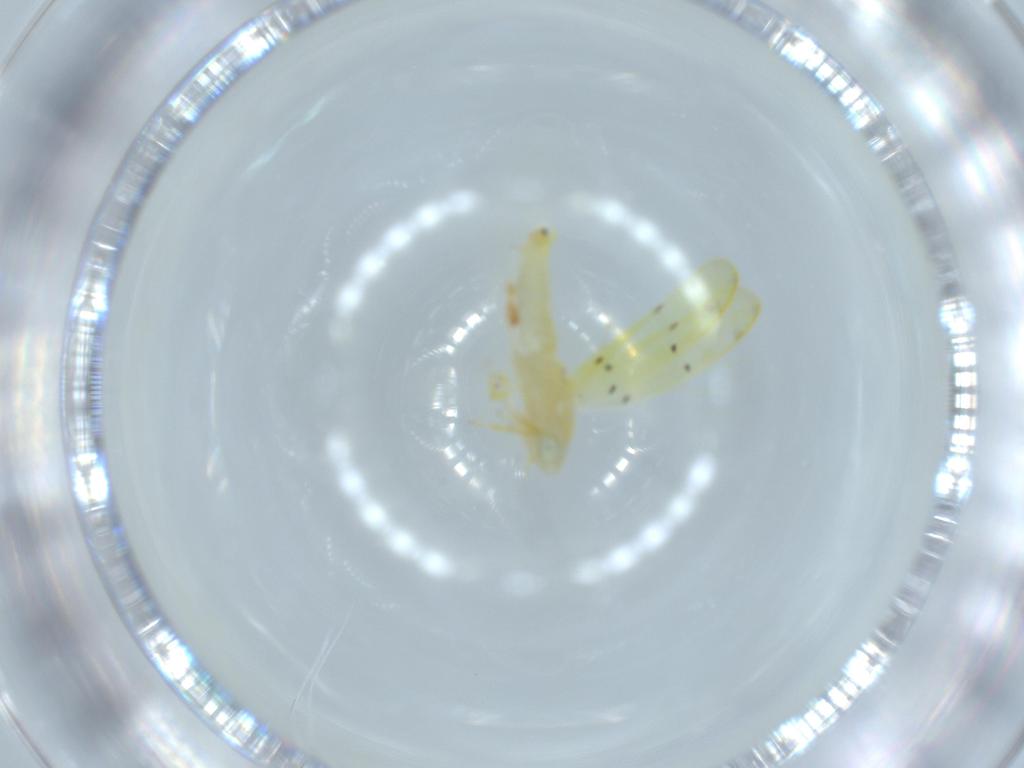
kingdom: Animalia
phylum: Arthropoda
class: Insecta
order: Hemiptera
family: Cicadellidae
